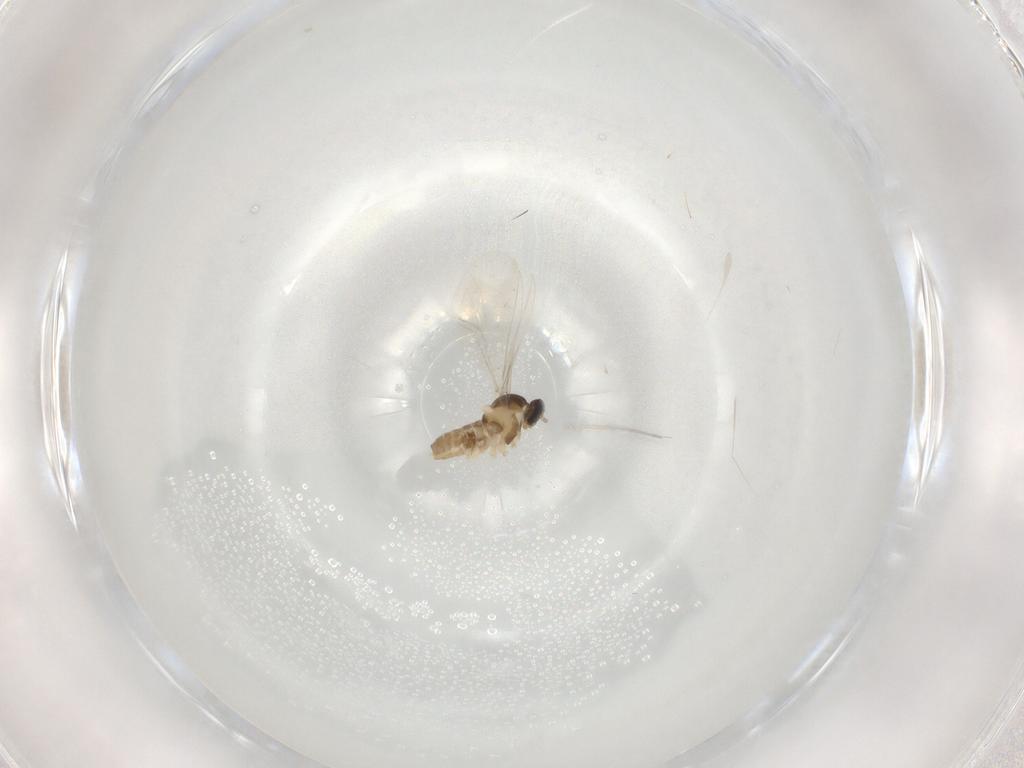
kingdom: Animalia
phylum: Arthropoda
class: Insecta
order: Diptera
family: Cecidomyiidae
